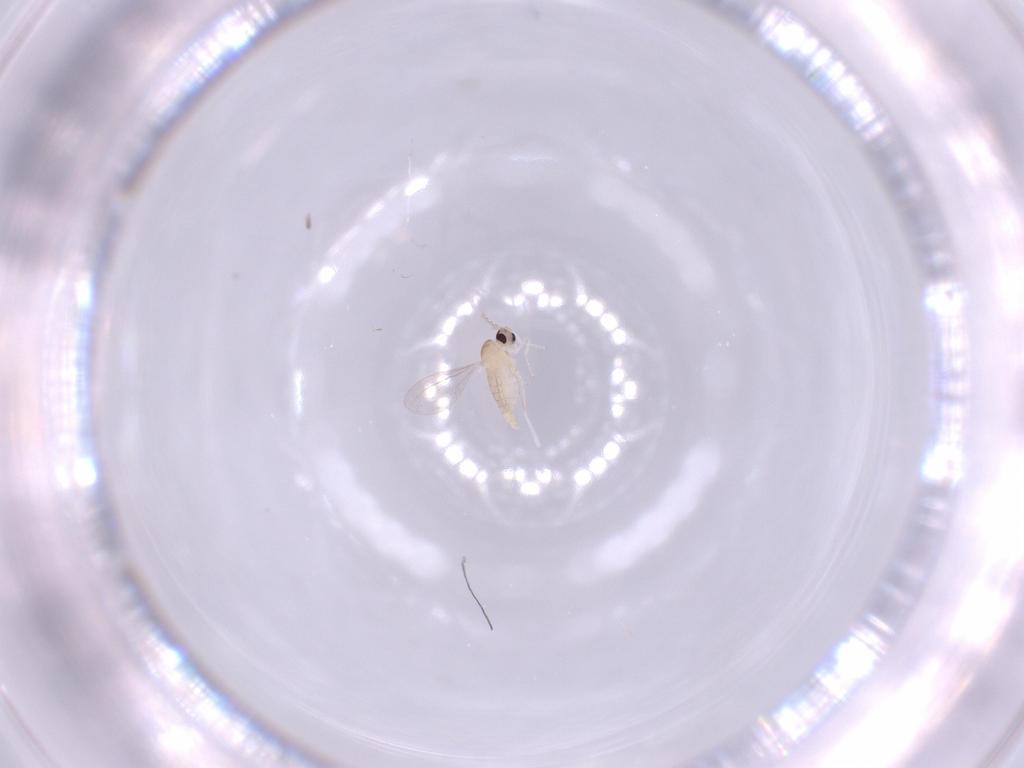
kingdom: Animalia
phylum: Arthropoda
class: Insecta
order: Diptera
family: Cecidomyiidae
